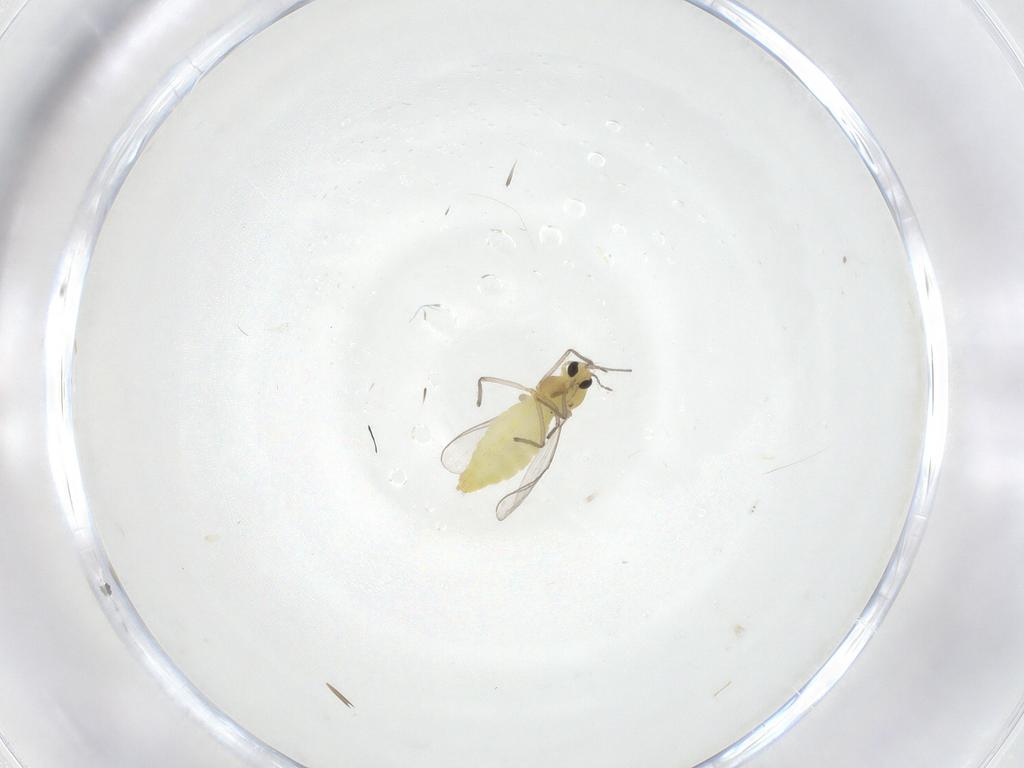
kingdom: Animalia
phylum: Arthropoda
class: Insecta
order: Diptera
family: Chironomidae
